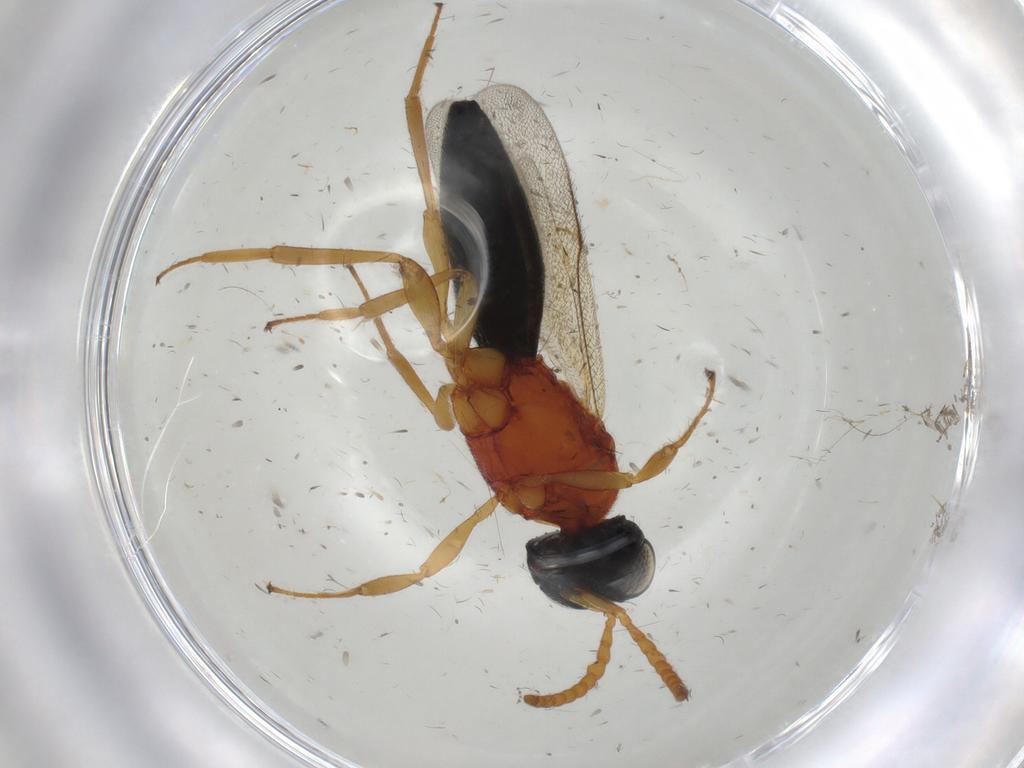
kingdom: Animalia
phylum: Arthropoda
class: Insecta
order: Hymenoptera
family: Scelionidae
